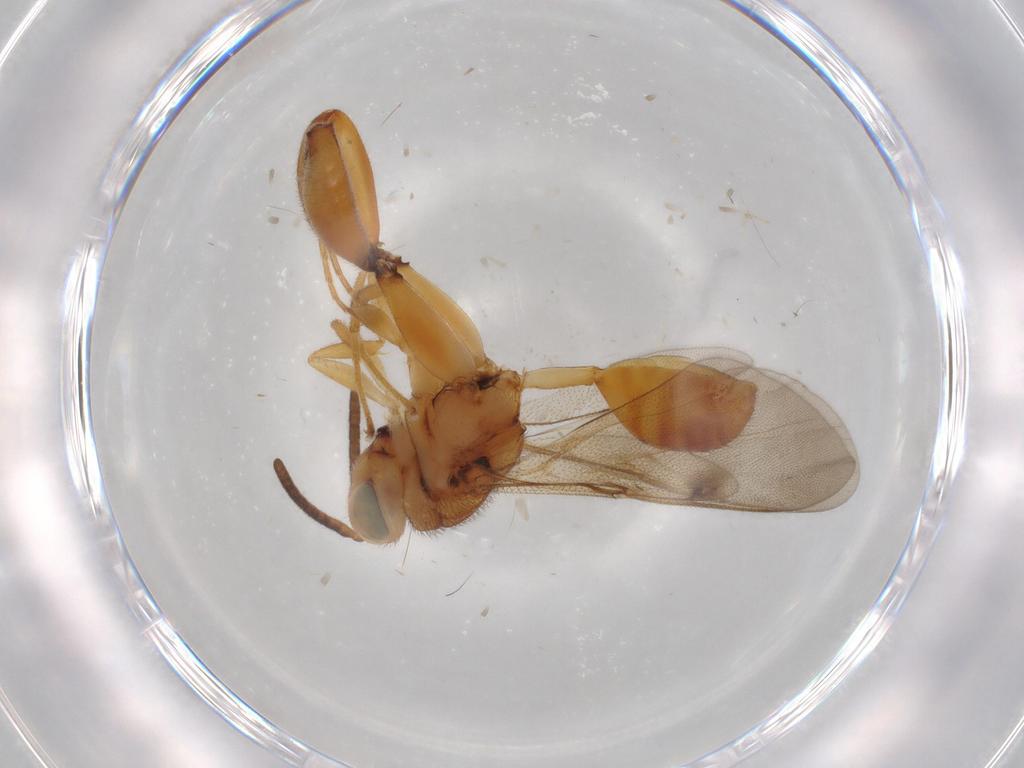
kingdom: Animalia
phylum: Arthropoda
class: Insecta
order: Hymenoptera
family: Chalcididae
